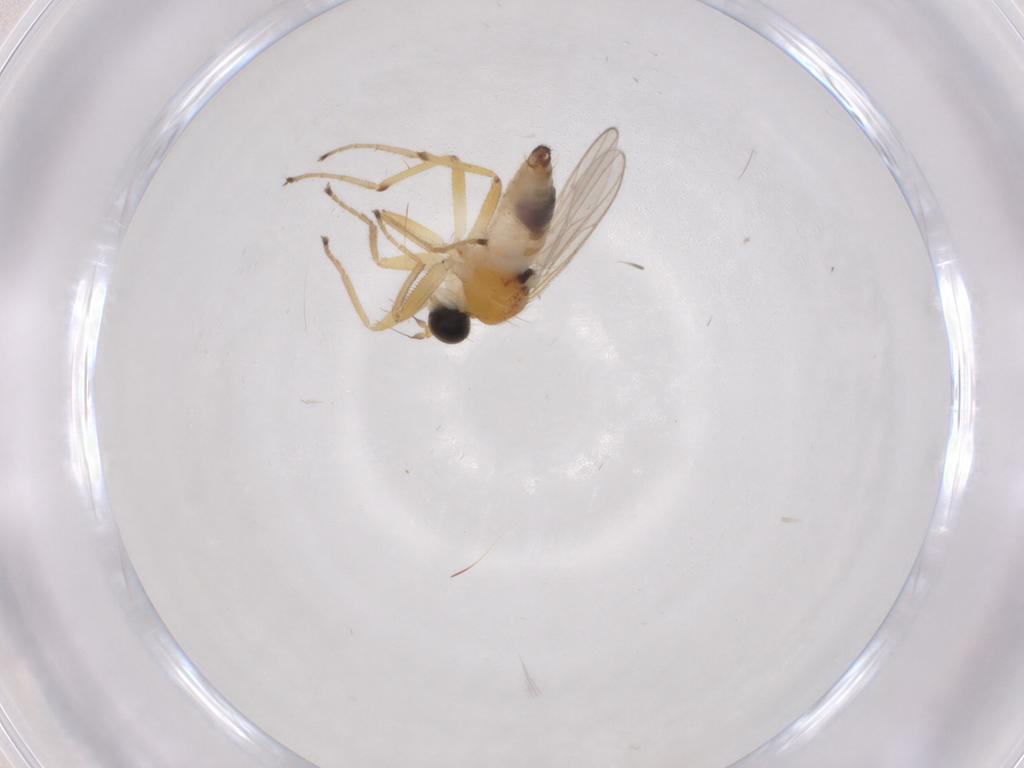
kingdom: Animalia
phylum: Arthropoda
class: Insecta
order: Diptera
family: Hybotidae
